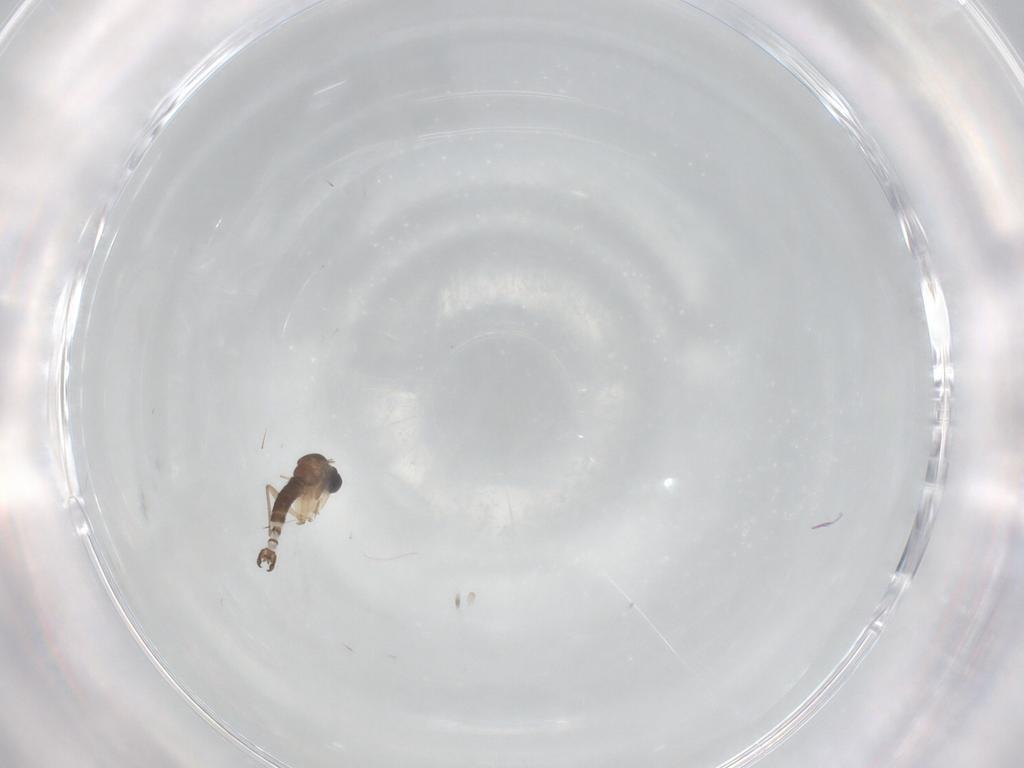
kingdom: Animalia
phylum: Arthropoda
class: Insecta
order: Diptera
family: Sciaridae
